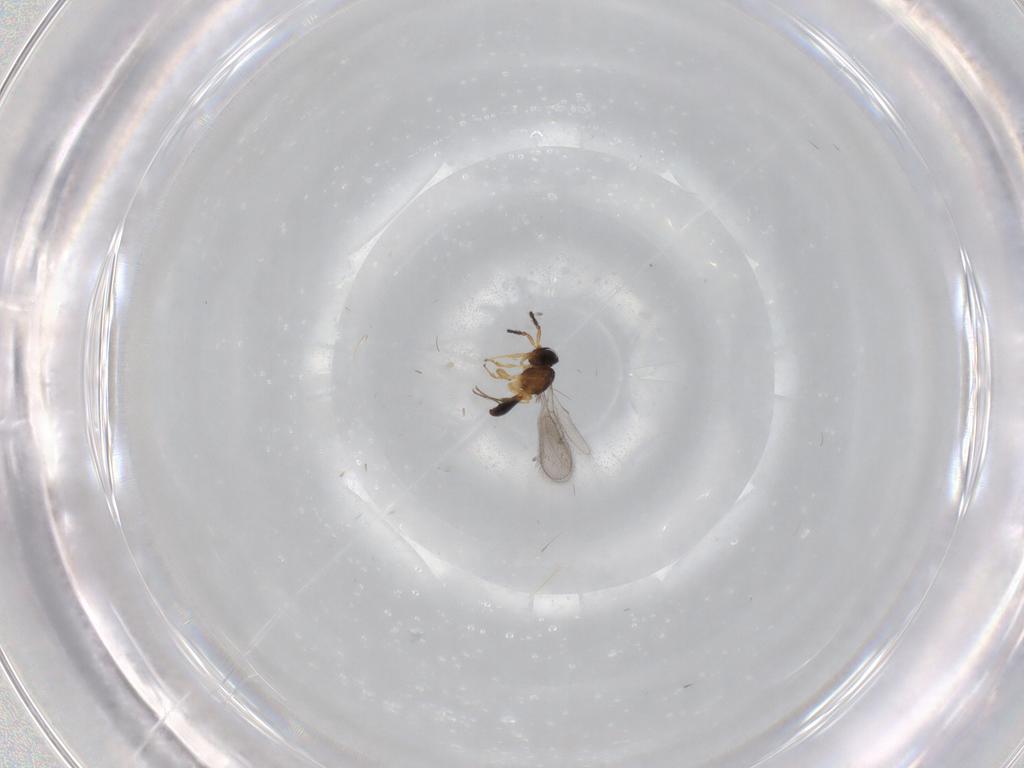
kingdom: Animalia
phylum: Arthropoda
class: Insecta
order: Hymenoptera
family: Scelionidae
